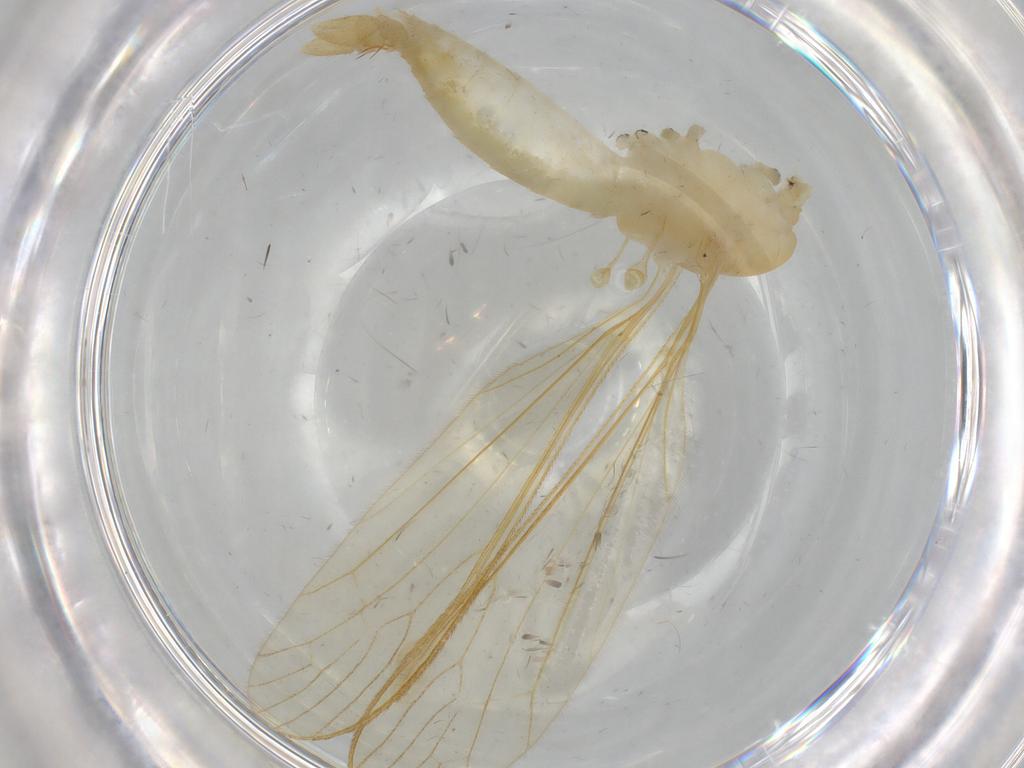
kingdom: Animalia
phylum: Arthropoda
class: Insecta
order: Diptera
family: Limoniidae
